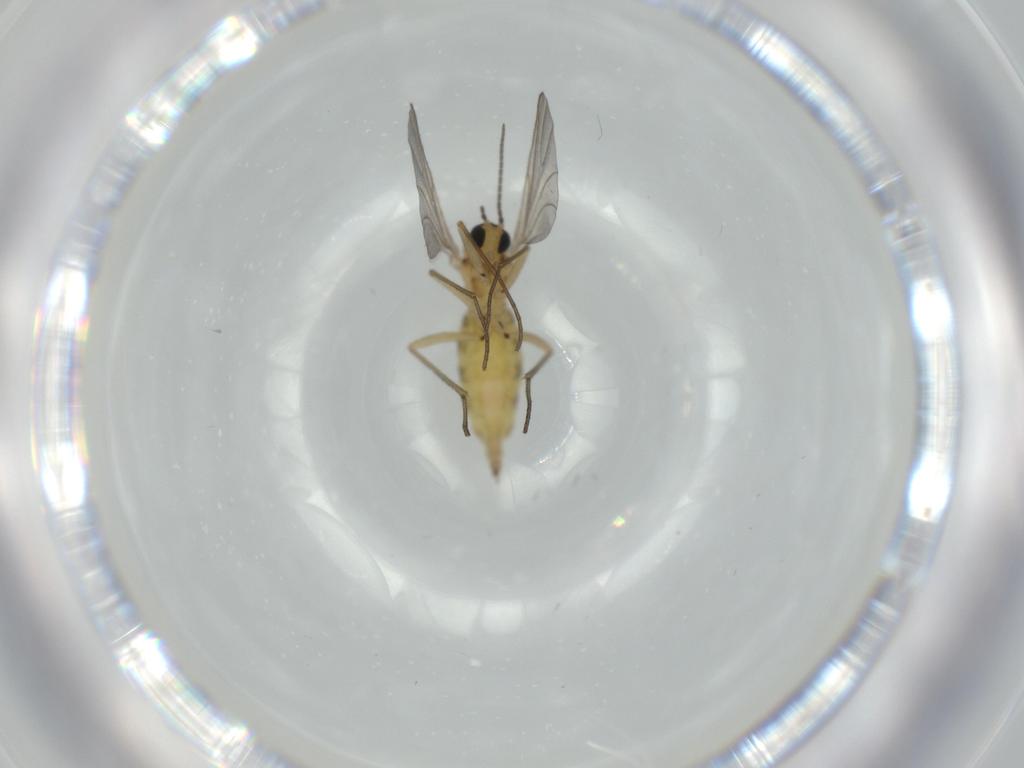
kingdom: Animalia
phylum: Arthropoda
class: Insecta
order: Diptera
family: Sciaridae
